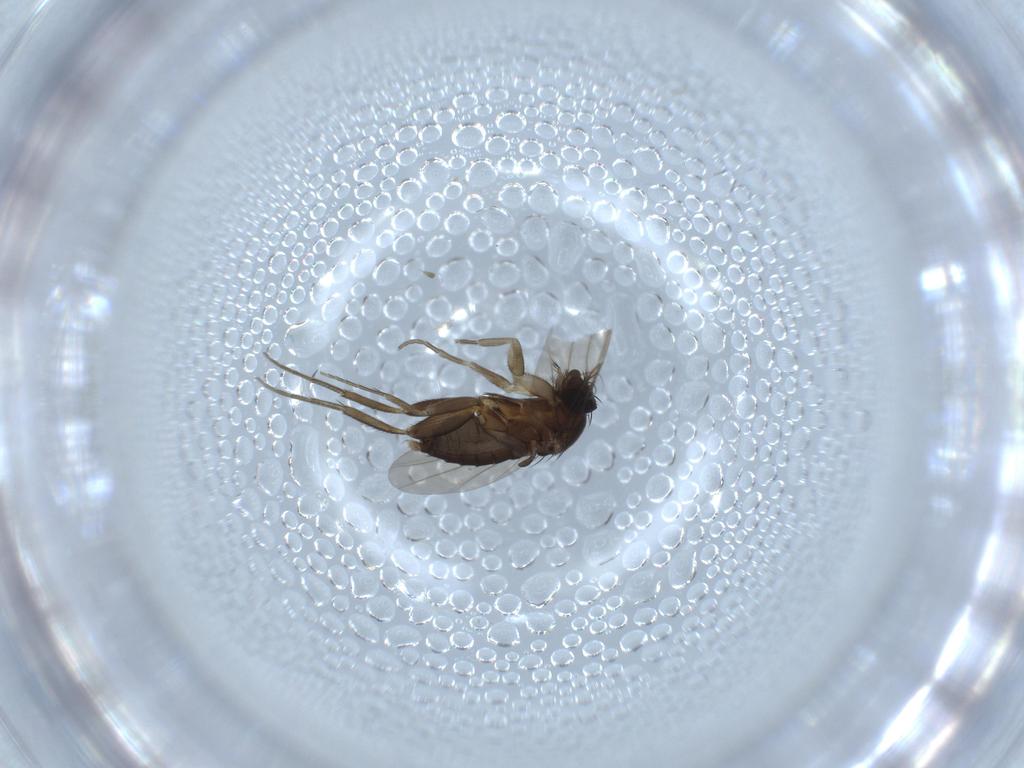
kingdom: Animalia
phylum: Arthropoda
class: Insecta
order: Diptera
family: Phoridae
